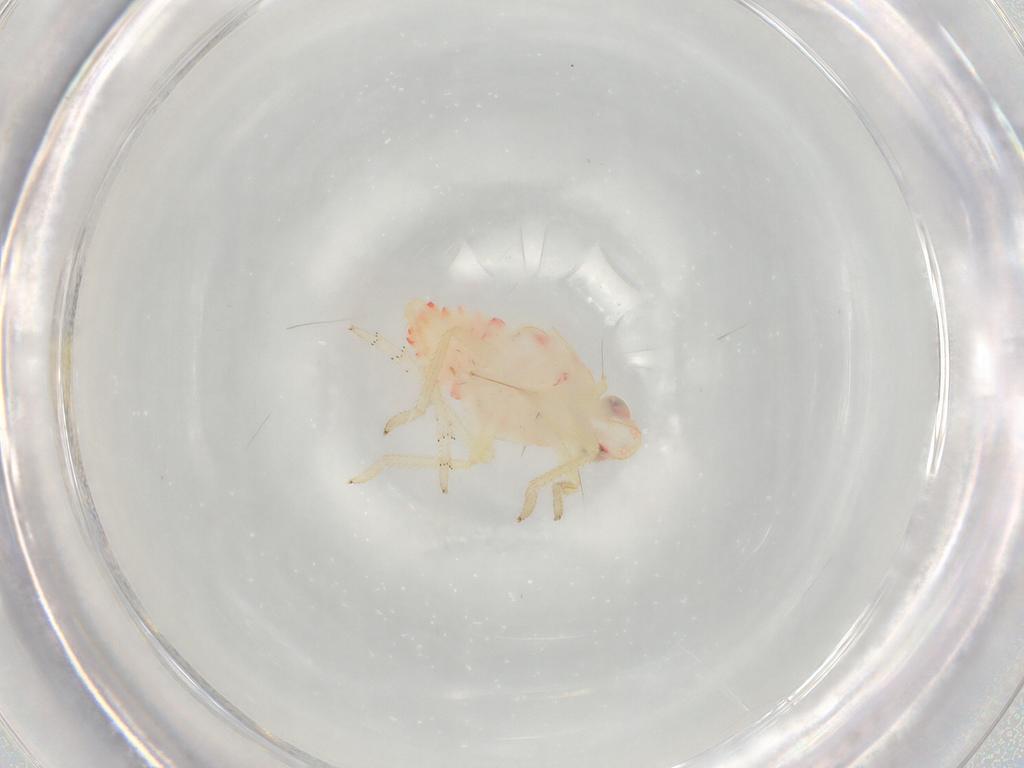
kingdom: Animalia
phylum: Arthropoda
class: Insecta
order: Hemiptera
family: Tropiduchidae
